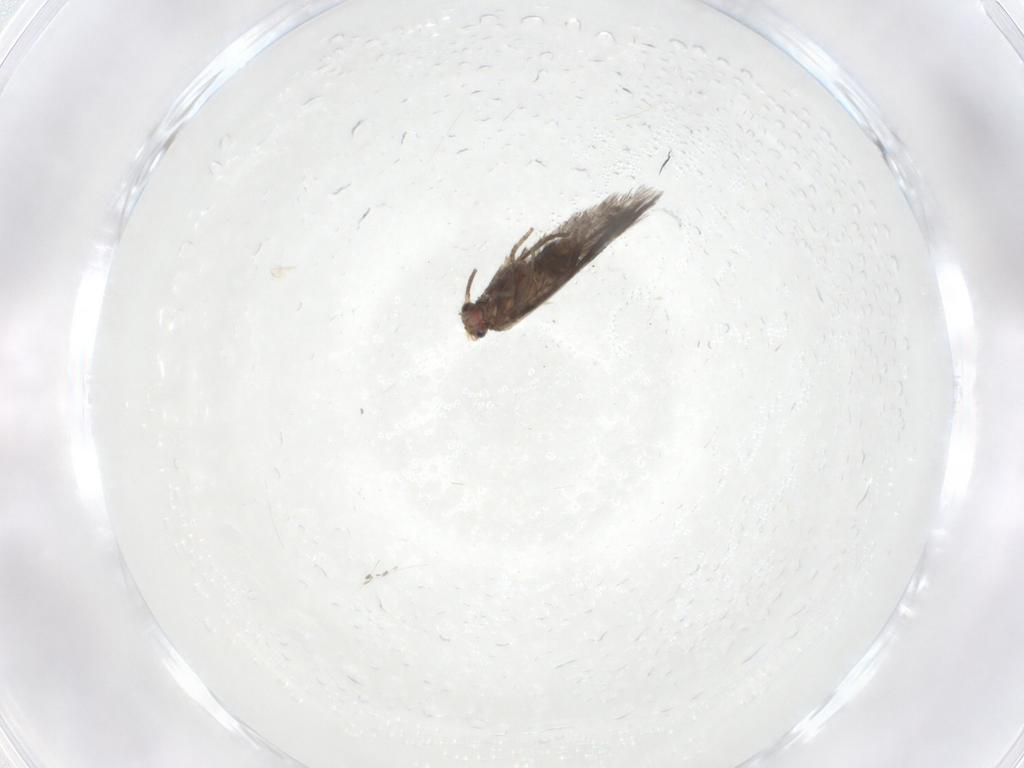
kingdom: Animalia
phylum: Arthropoda
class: Insecta
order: Lepidoptera
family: Nepticulidae
